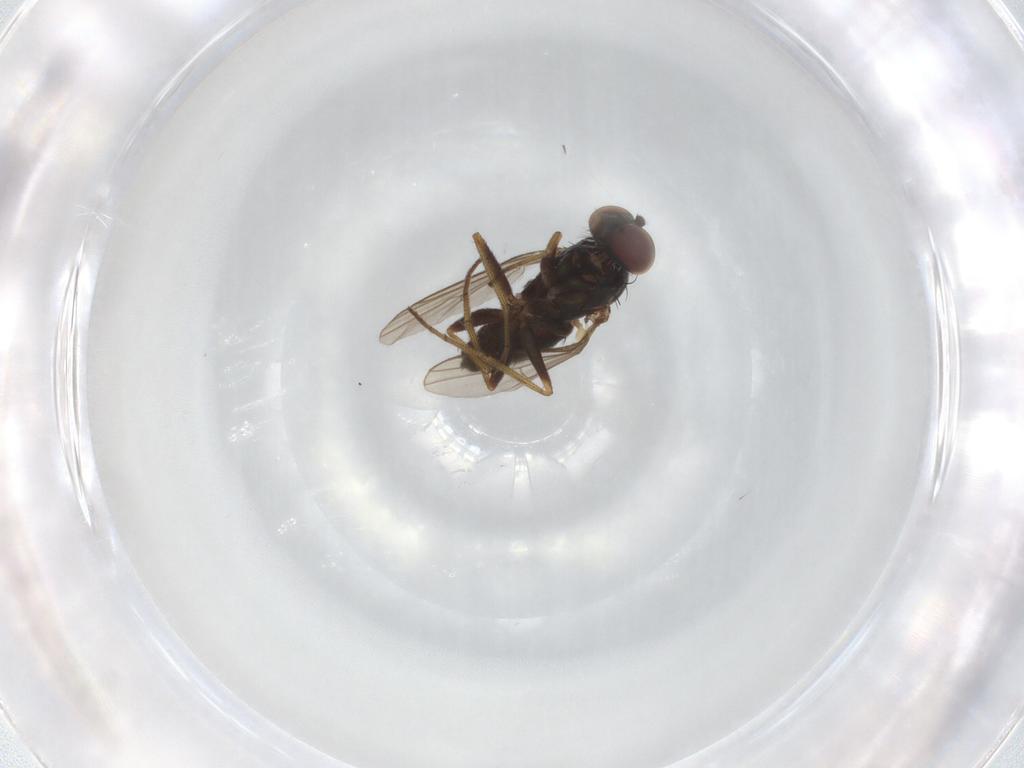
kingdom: Animalia
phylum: Arthropoda
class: Insecta
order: Diptera
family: Dolichopodidae
